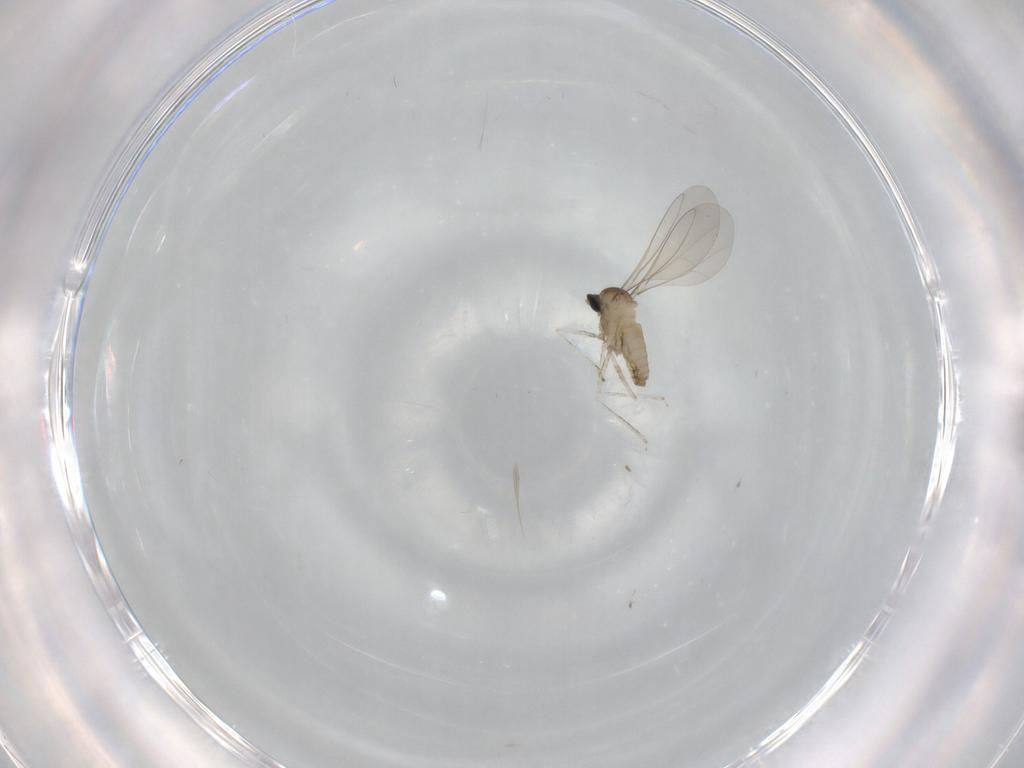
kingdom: Animalia
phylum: Arthropoda
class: Insecta
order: Diptera
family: Cecidomyiidae
